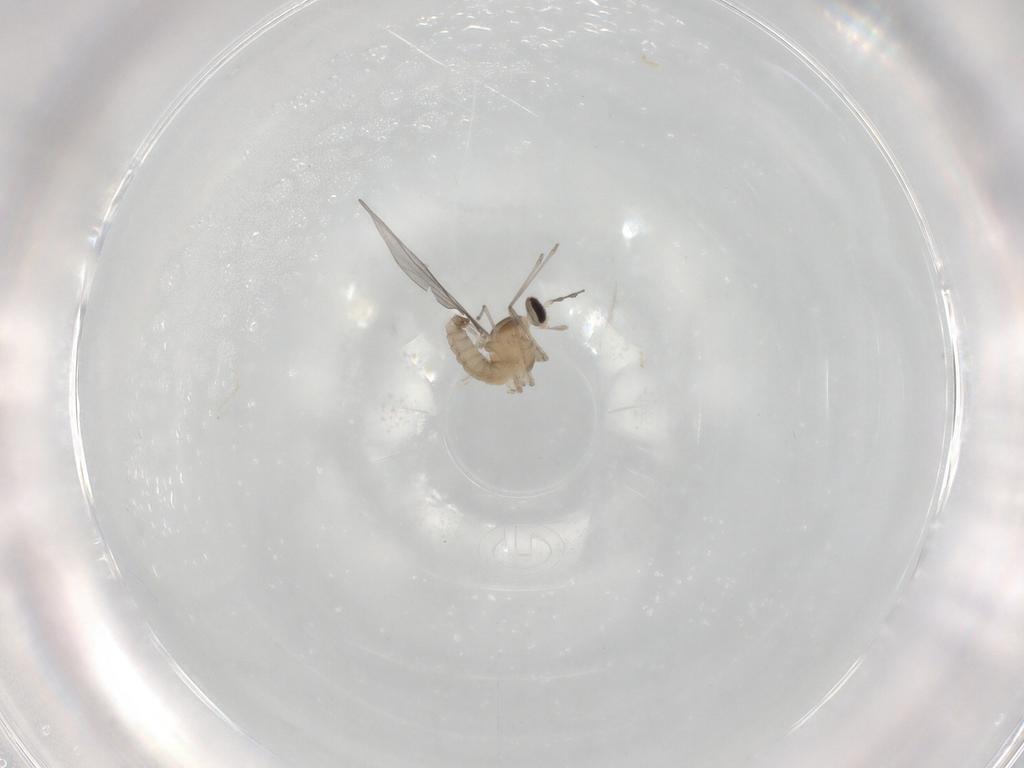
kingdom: Animalia
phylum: Arthropoda
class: Insecta
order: Diptera
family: Cecidomyiidae
